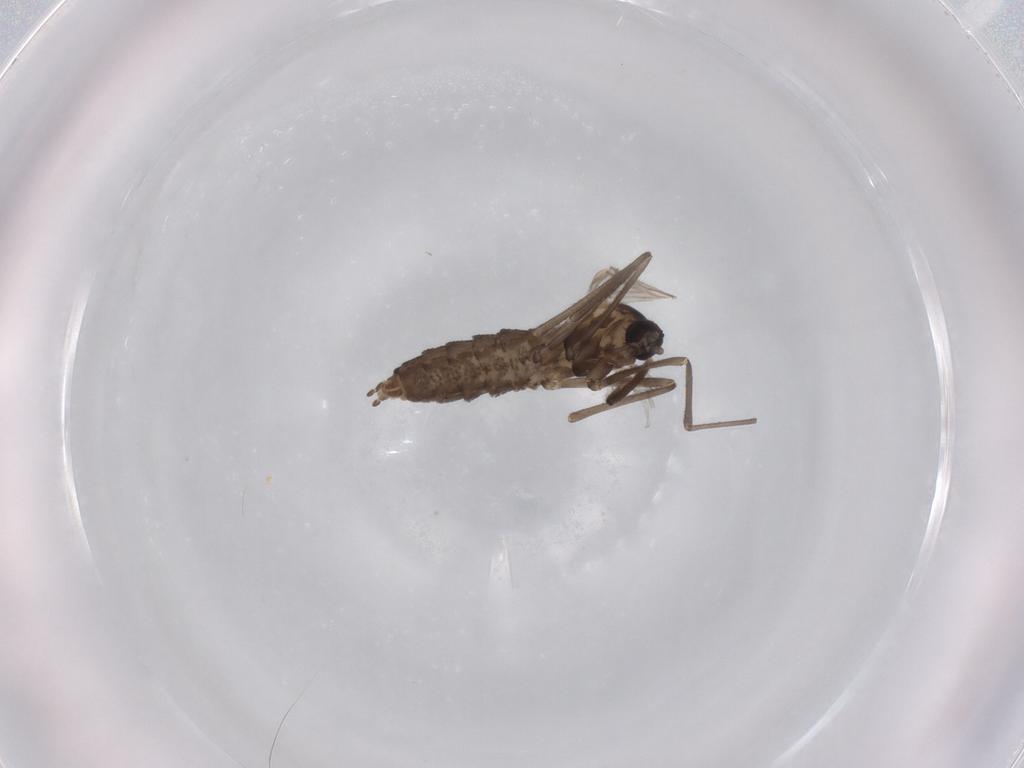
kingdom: Animalia
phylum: Arthropoda
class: Insecta
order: Diptera
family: Cecidomyiidae
